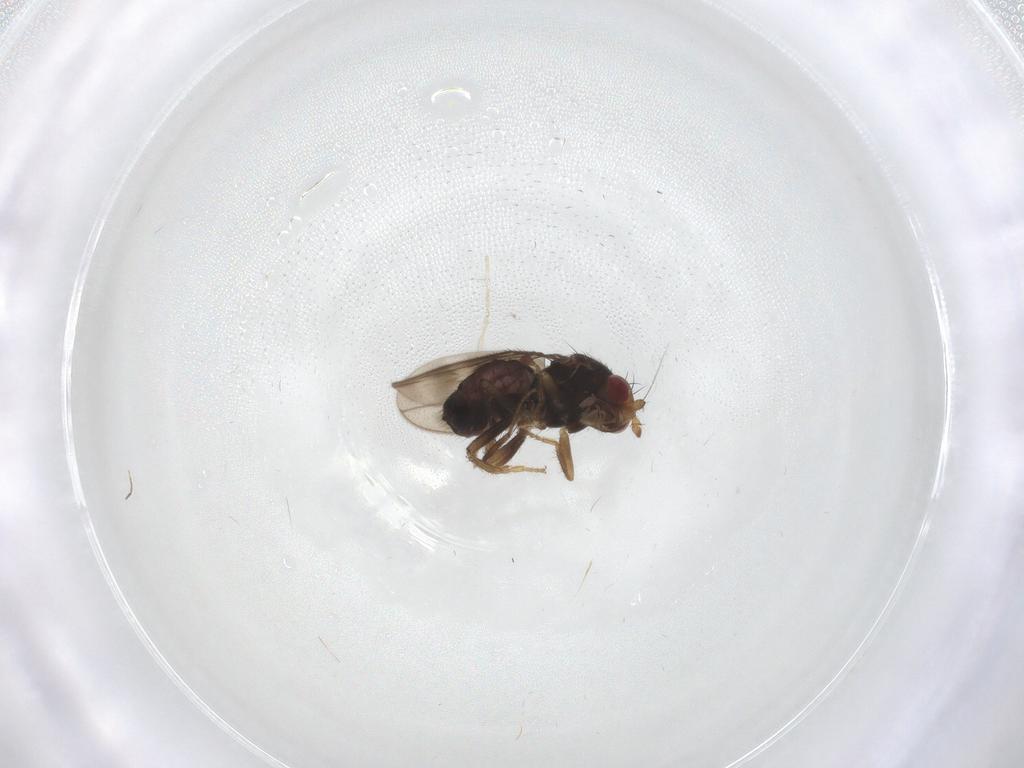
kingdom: Animalia
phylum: Arthropoda
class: Insecta
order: Diptera
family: Sphaeroceridae
